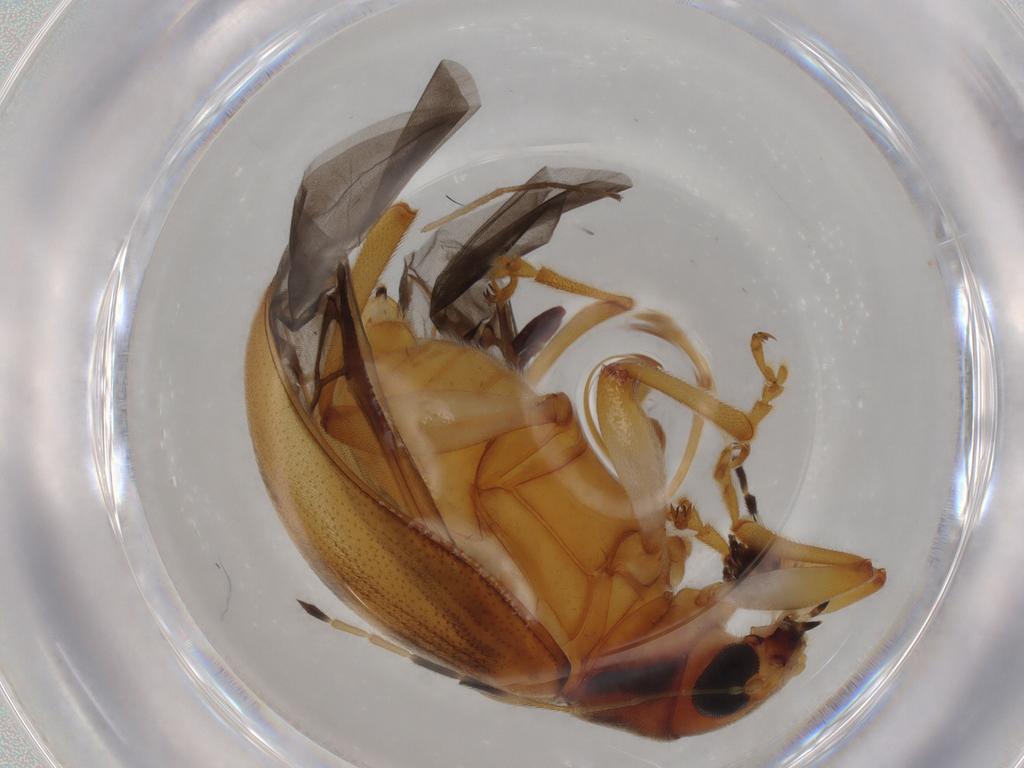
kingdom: Animalia
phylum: Arthropoda
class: Insecta
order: Coleoptera
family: Chrysomelidae
